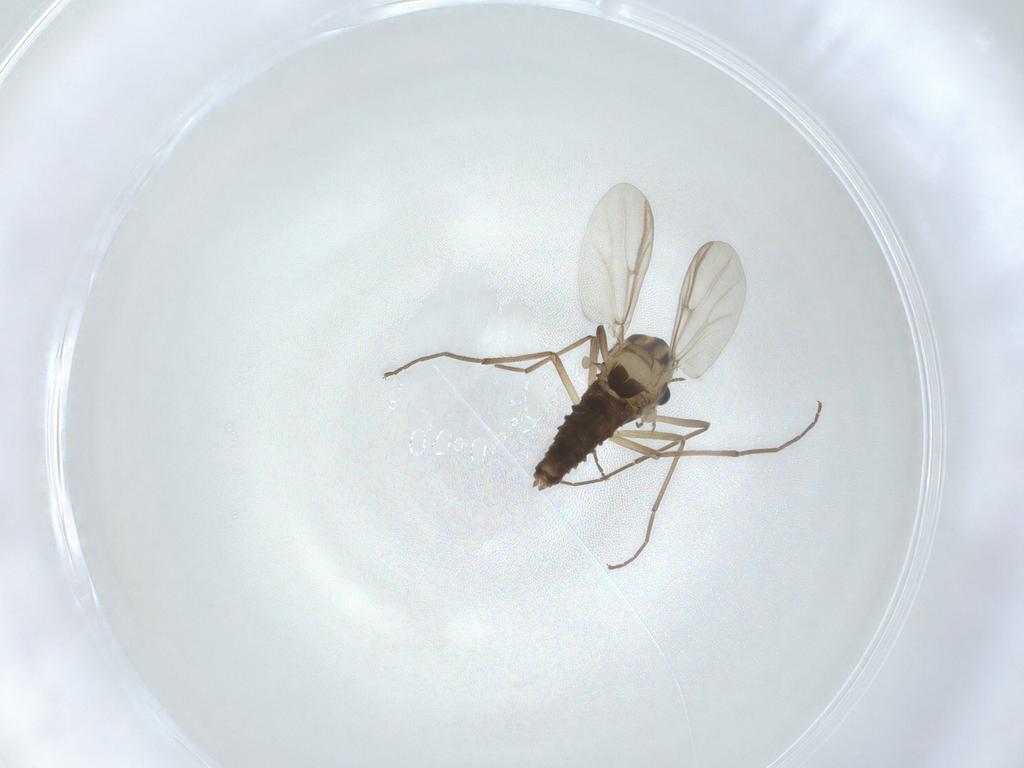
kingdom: Animalia
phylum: Arthropoda
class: Insecta
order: Diptera
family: Chironomidae
